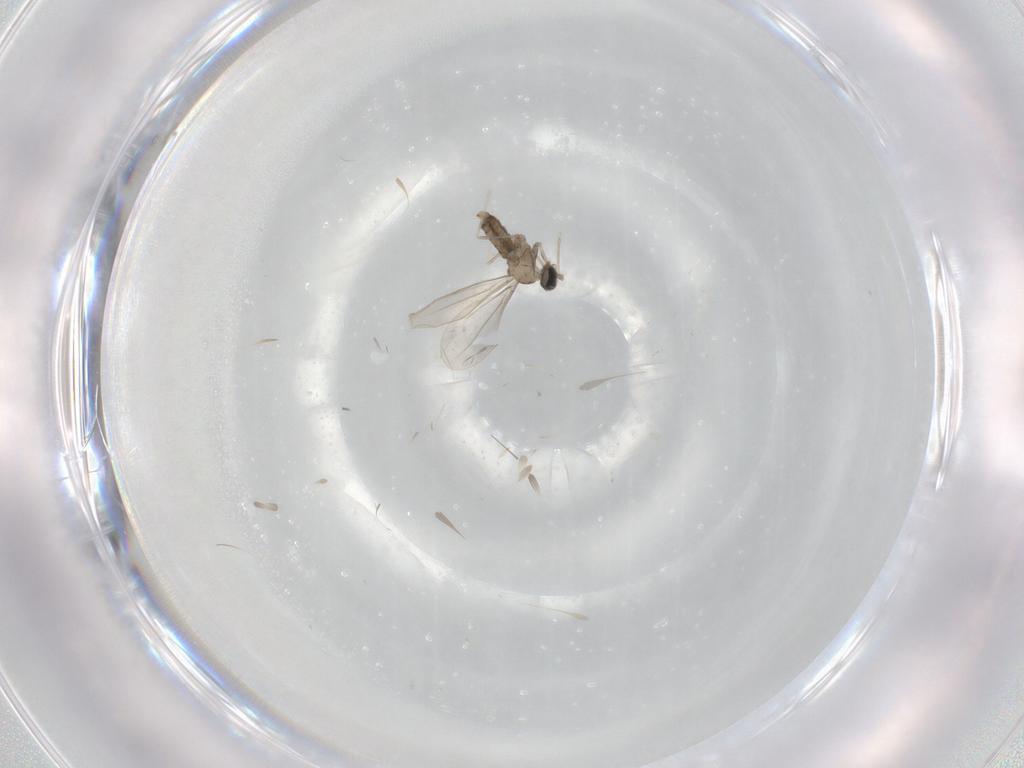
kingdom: Animalia
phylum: Arthropoda
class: Insecta
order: Diptera
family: Cecidomyiidae
